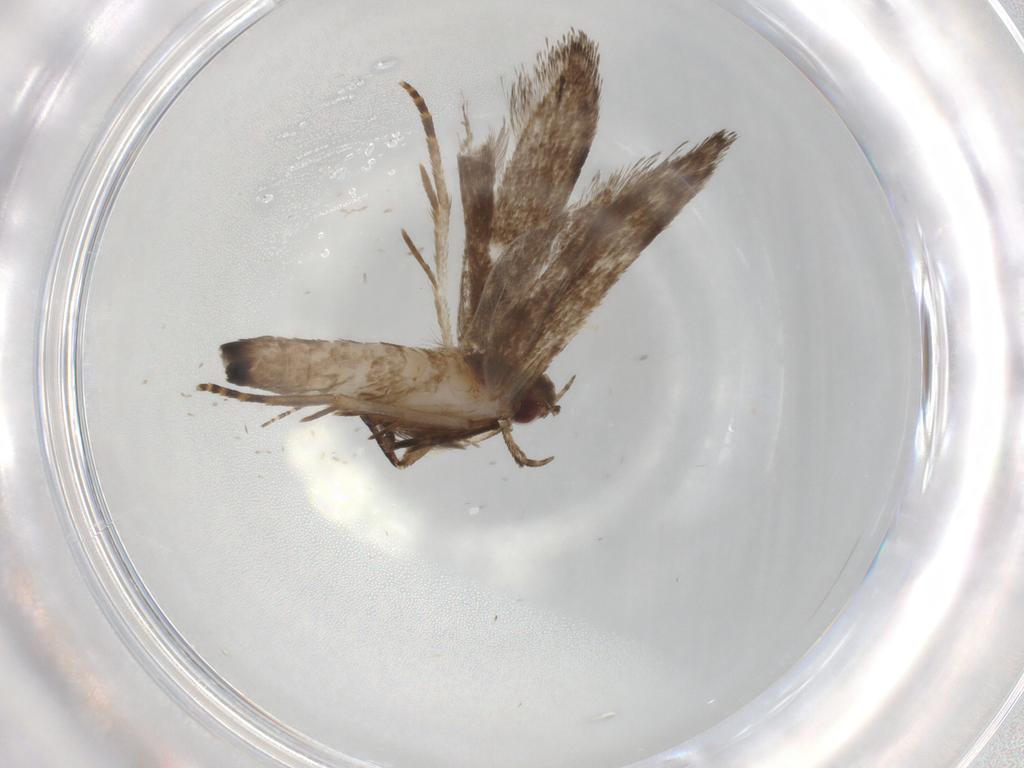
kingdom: Animalia
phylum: Arthropoda
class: Insecta
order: Lepidoptera
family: Gelechiidae
